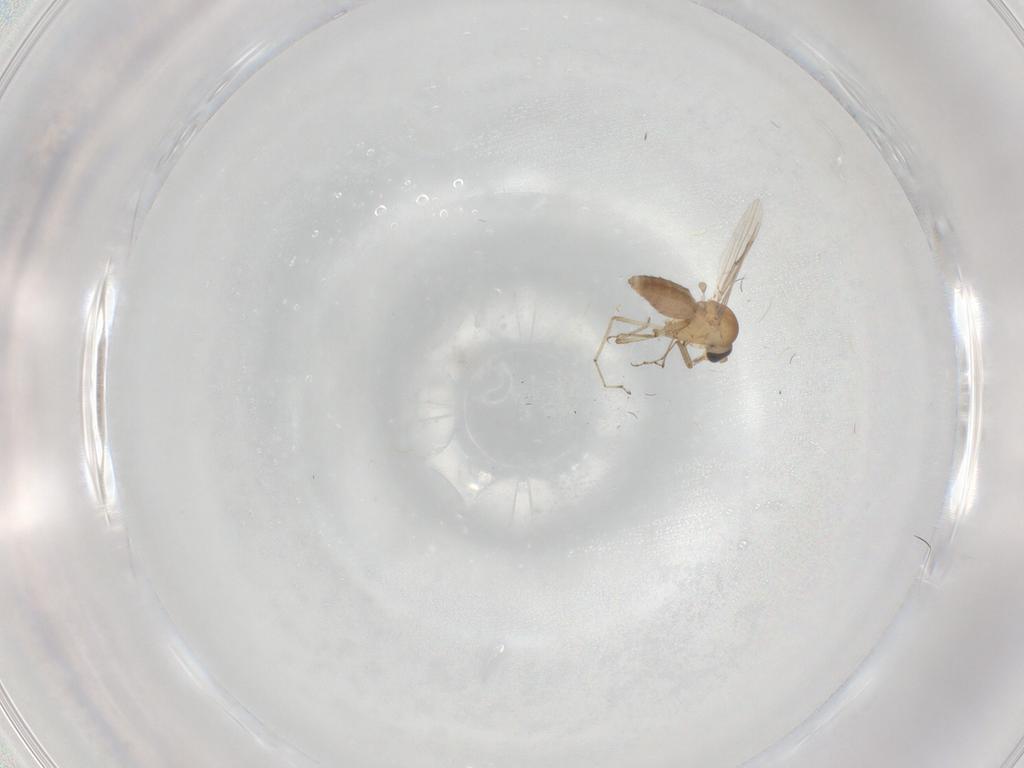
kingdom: Animalia
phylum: Arthropoda
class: Insecta
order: Diptera
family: Ceratopogonidae
